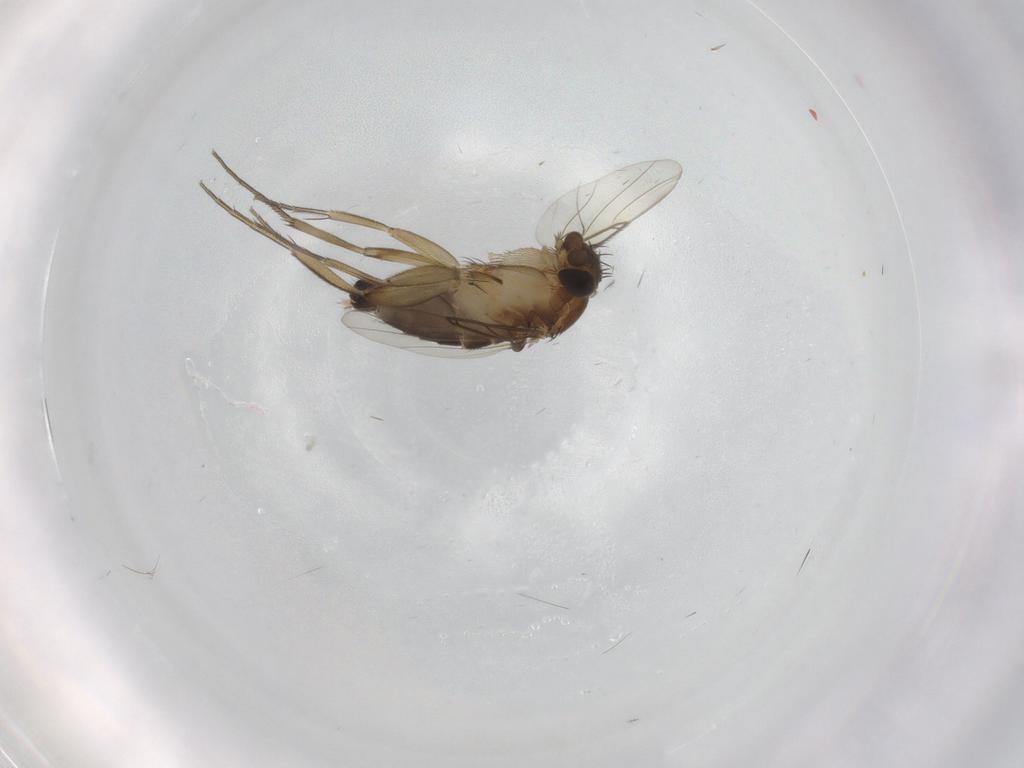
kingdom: Animalia
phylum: Arthropoda
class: Insecta
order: Diptera
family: Phoridae
